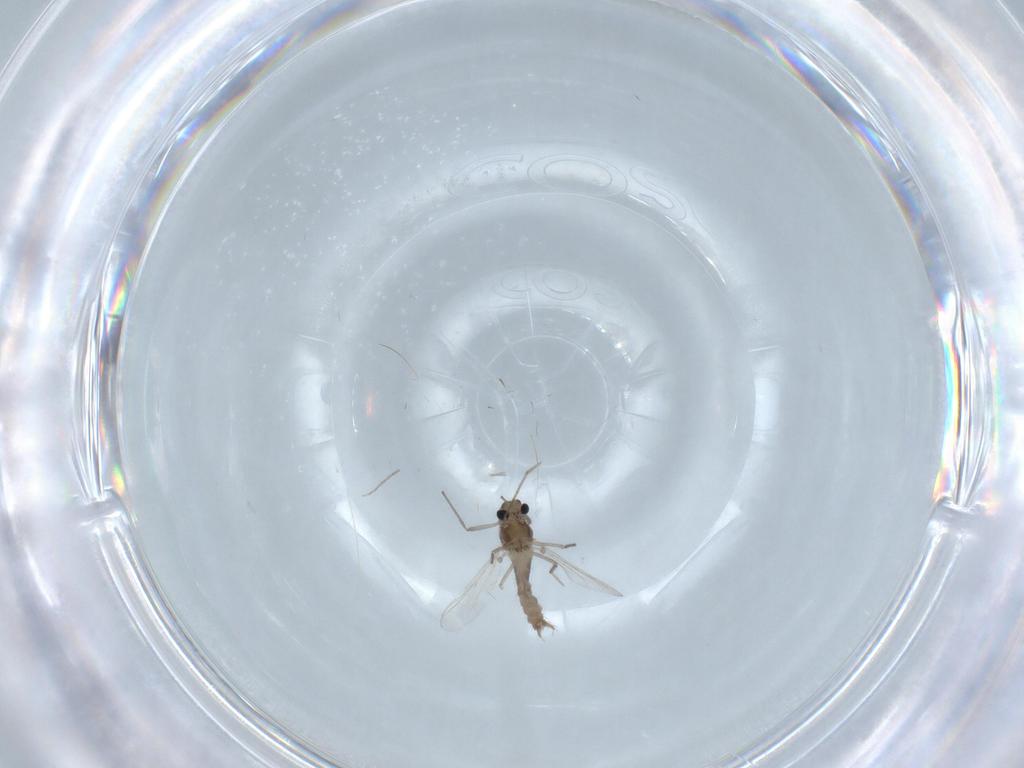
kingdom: Animalia
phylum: Arthropoda
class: Insecta
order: Diptera
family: Chironomidae
